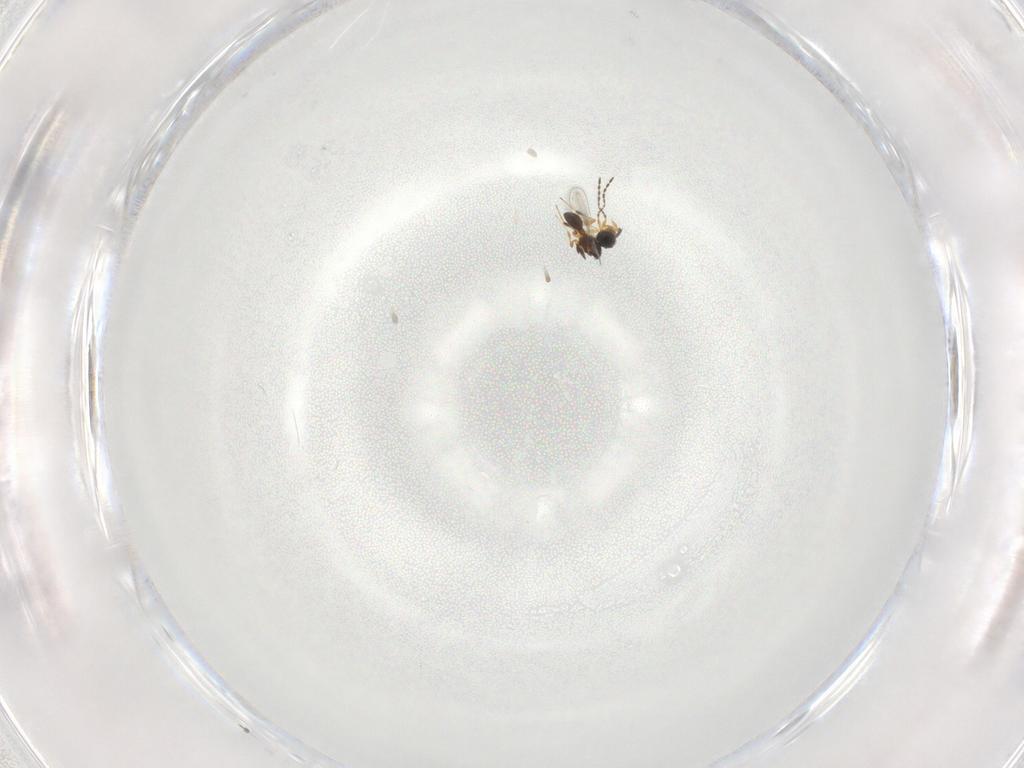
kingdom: Animalia
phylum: Arthropoda
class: Insecta
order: Hymenoptera
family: Platygastridae
